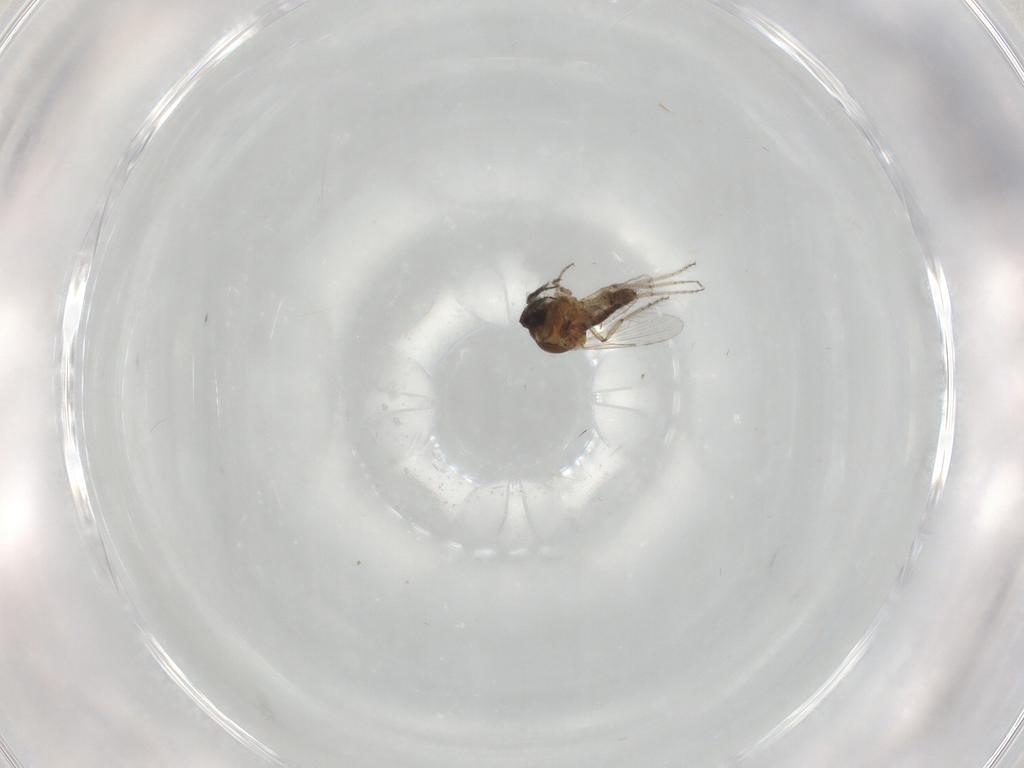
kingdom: Animalia
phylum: Arthropoda
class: Insecta
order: Diptera
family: Ceratopogonidae
